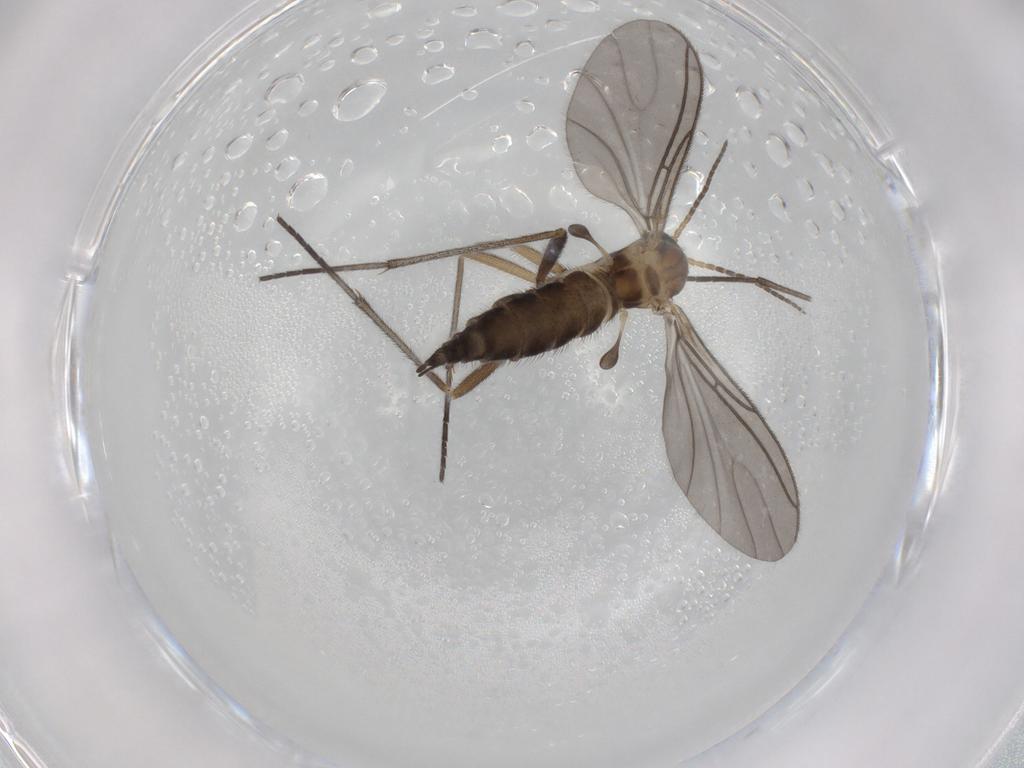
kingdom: Animalia
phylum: Arthropoda
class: Insecta
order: Diptera
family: Sciaridae
